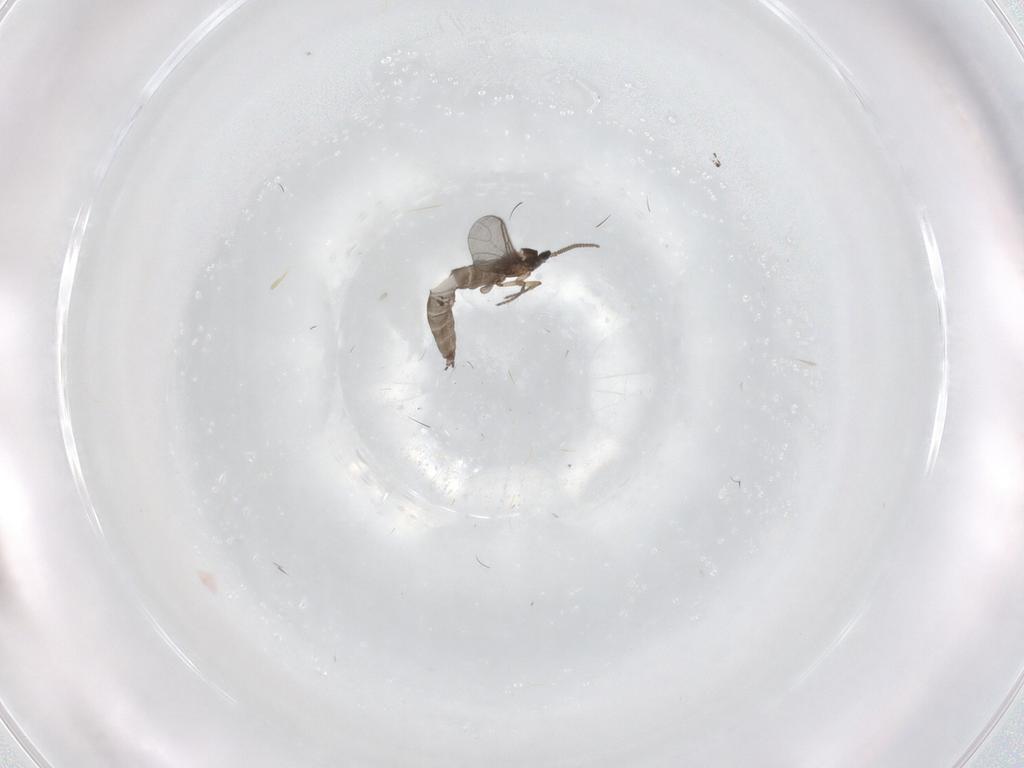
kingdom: Animalia
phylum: Arthropoda
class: Insecta
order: Diptera
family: Sciaridae
